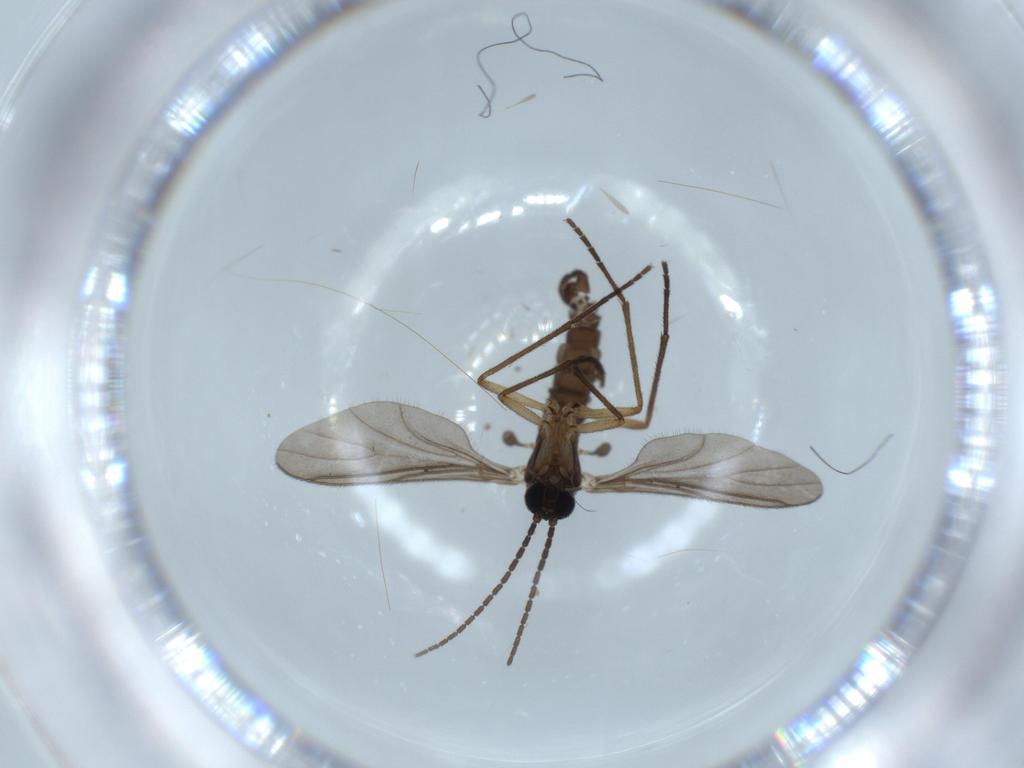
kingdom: Animalia
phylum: Arthropoda
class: Insecta
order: Diptera
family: Sciaridae
